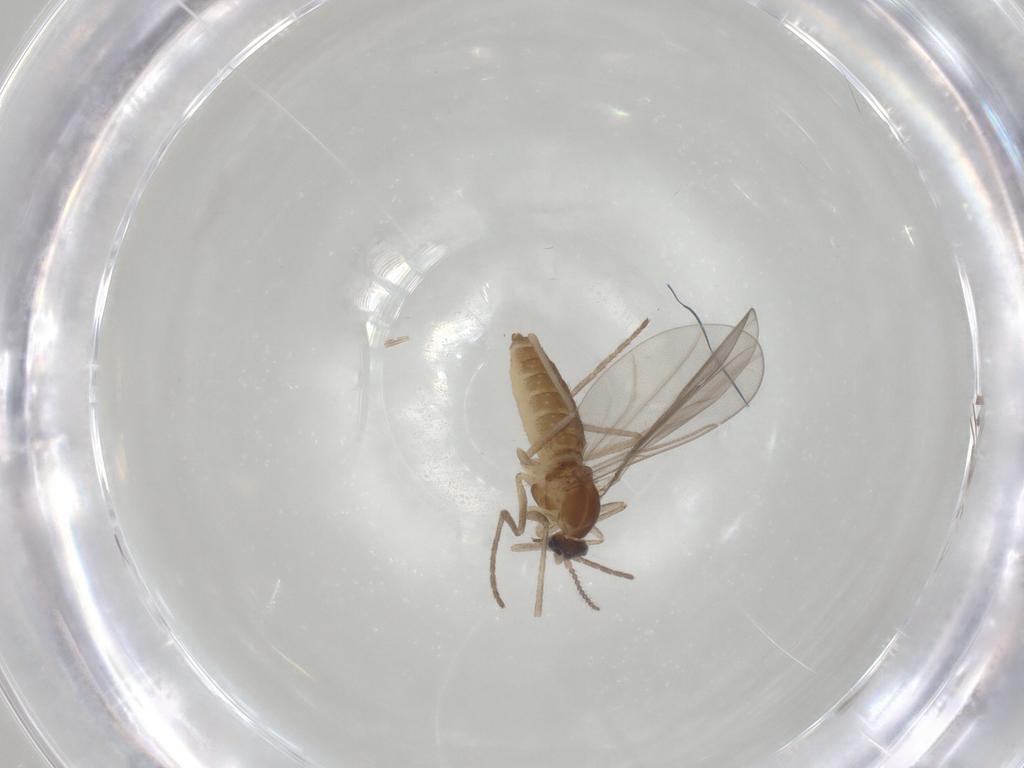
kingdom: Animalia
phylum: Arthropoda
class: Insecta
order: Diptera
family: Cecidomyiidae
